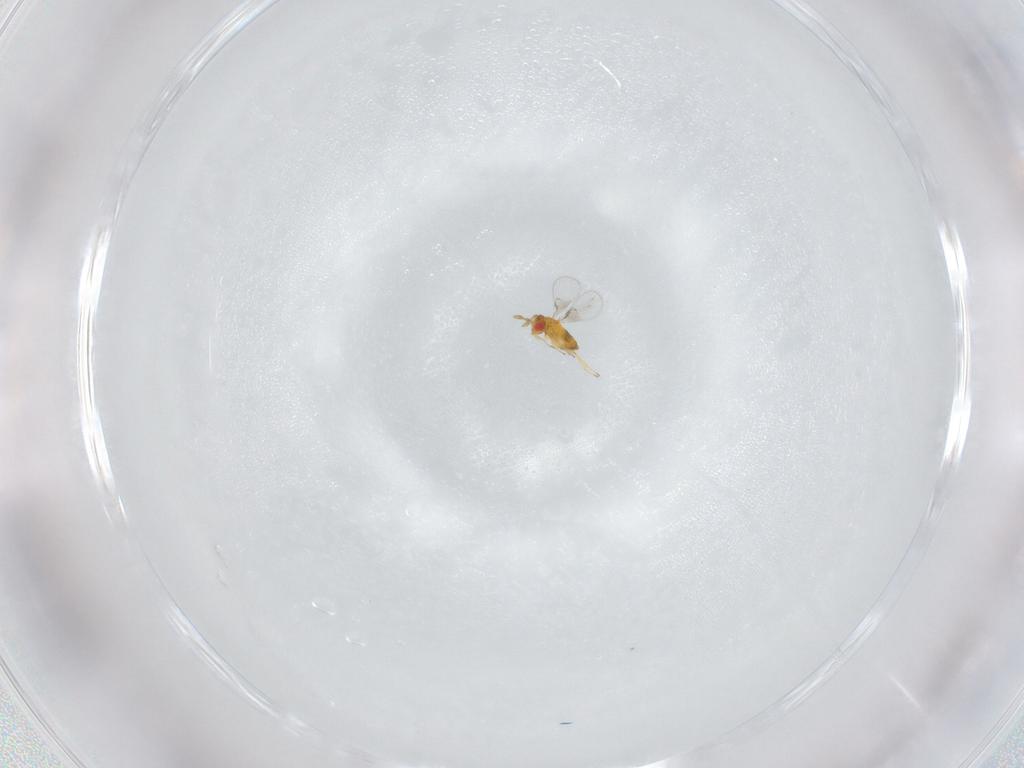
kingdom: Animalia
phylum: Arthropoda
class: Insecta
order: Hymenoptera
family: Trichogrammatidae
